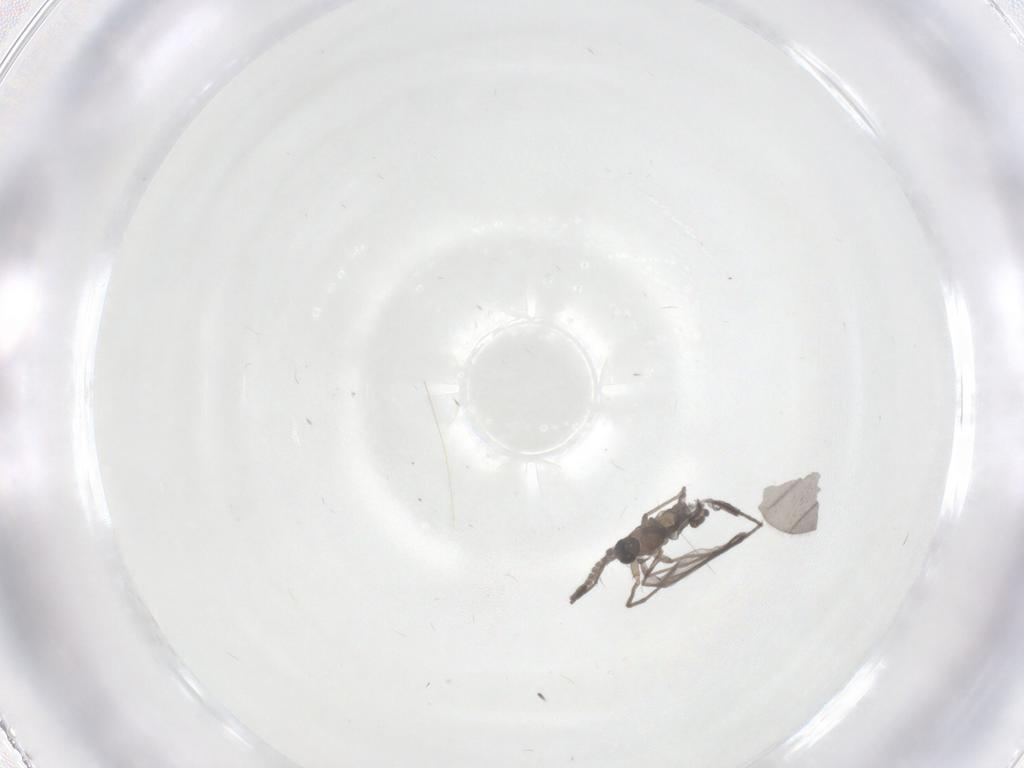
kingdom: Animalia
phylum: Arthropoda
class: Insecta
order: Diptera
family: Sciaridae
